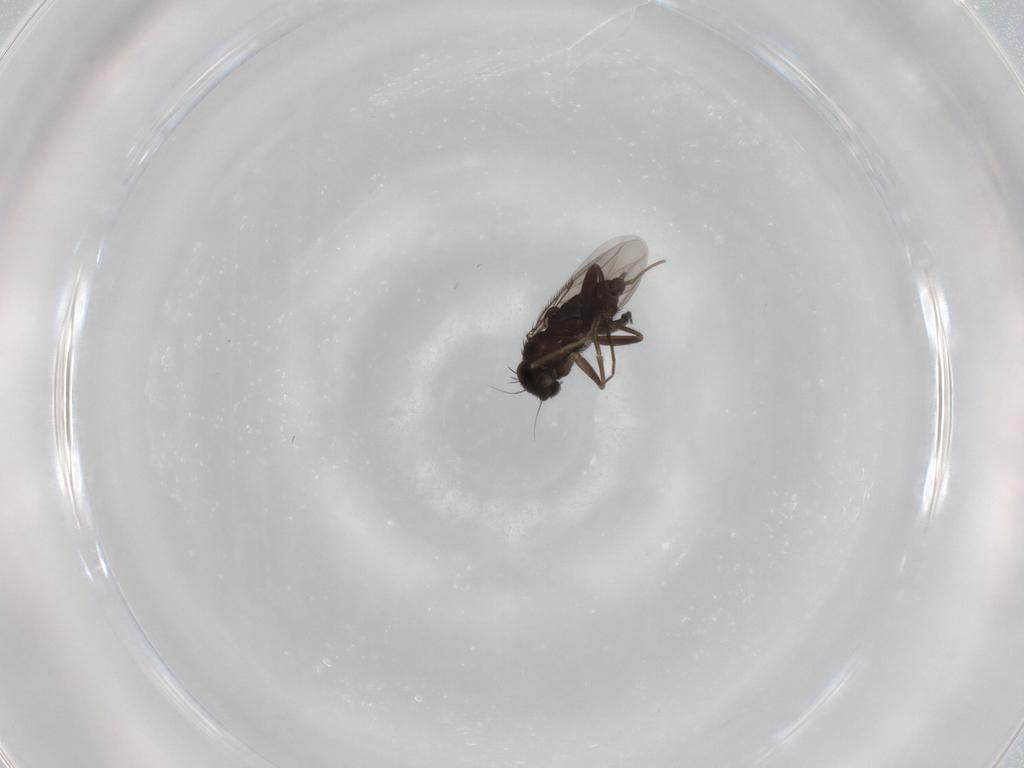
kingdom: Animalia
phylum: Arthropoda
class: Insecta
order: Diptera
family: Phoridae
